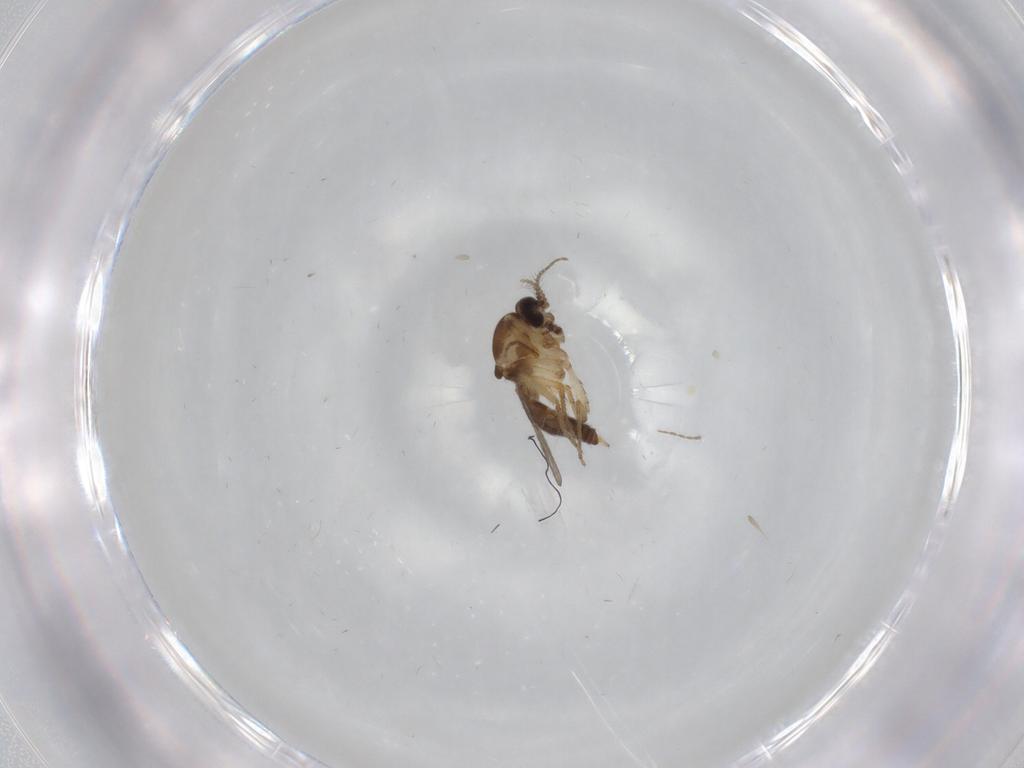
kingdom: Animalia
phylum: Arthropoda
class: Insecta
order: Diptera
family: Ceratopogonidae
